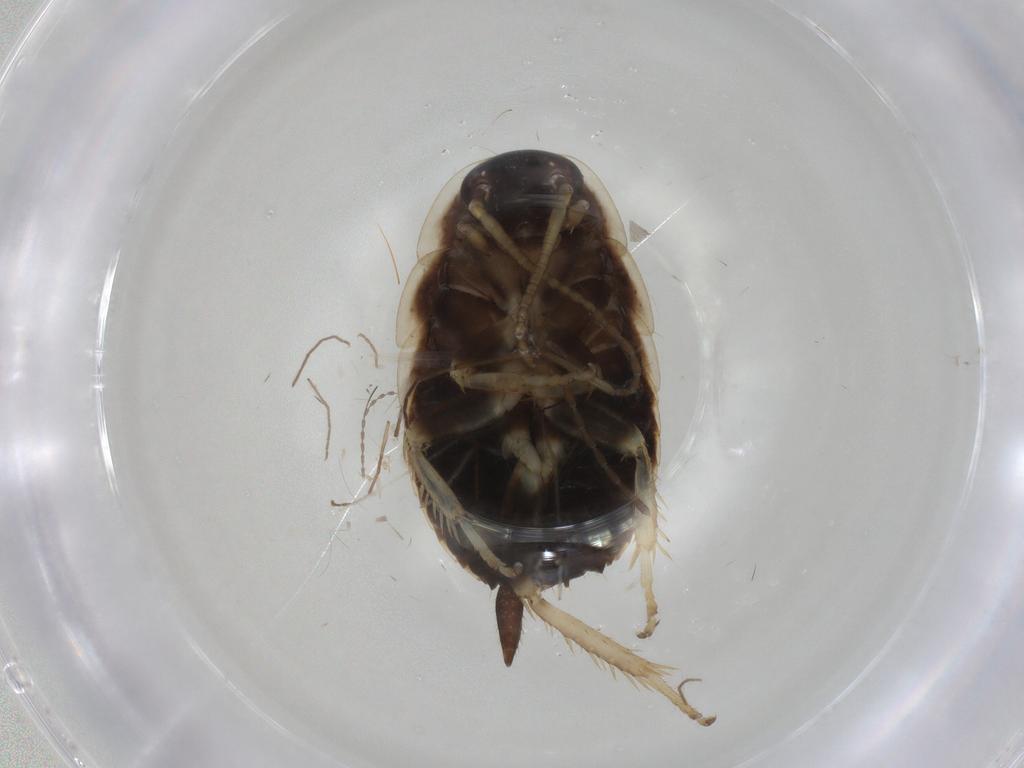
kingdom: Animalia
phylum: Arthropoda
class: Insecta
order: Blattodea
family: Ectobiidae
